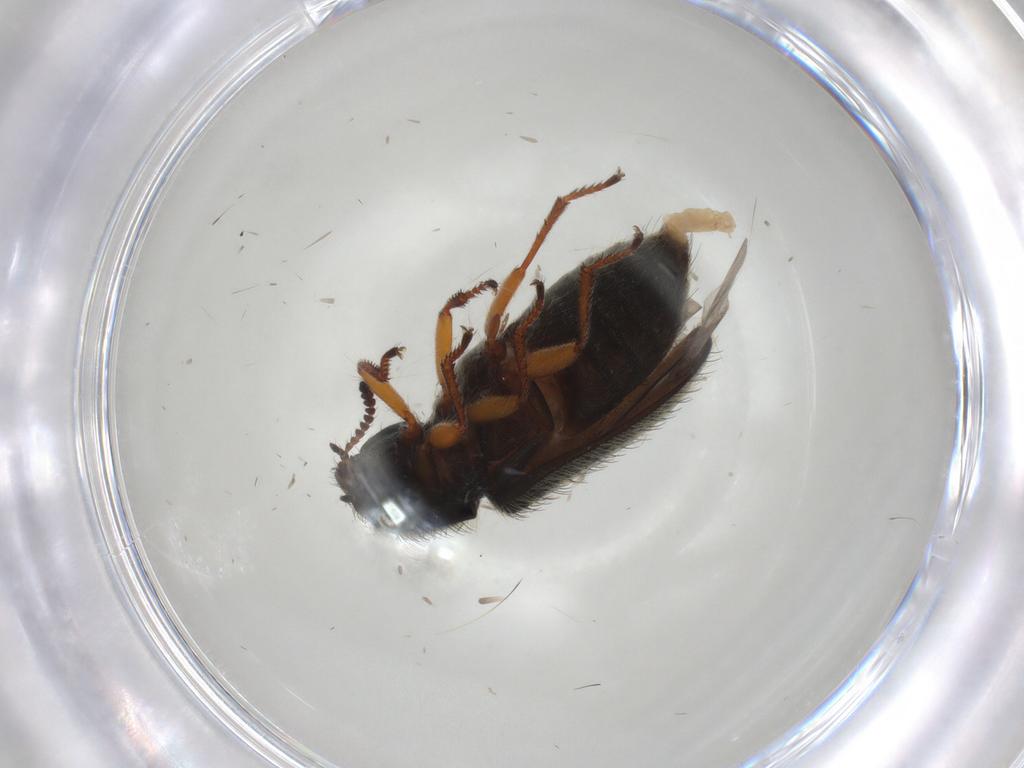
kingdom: Animalia
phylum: Arthropoda
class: Insecta
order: Coleoptera
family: Melyridae
